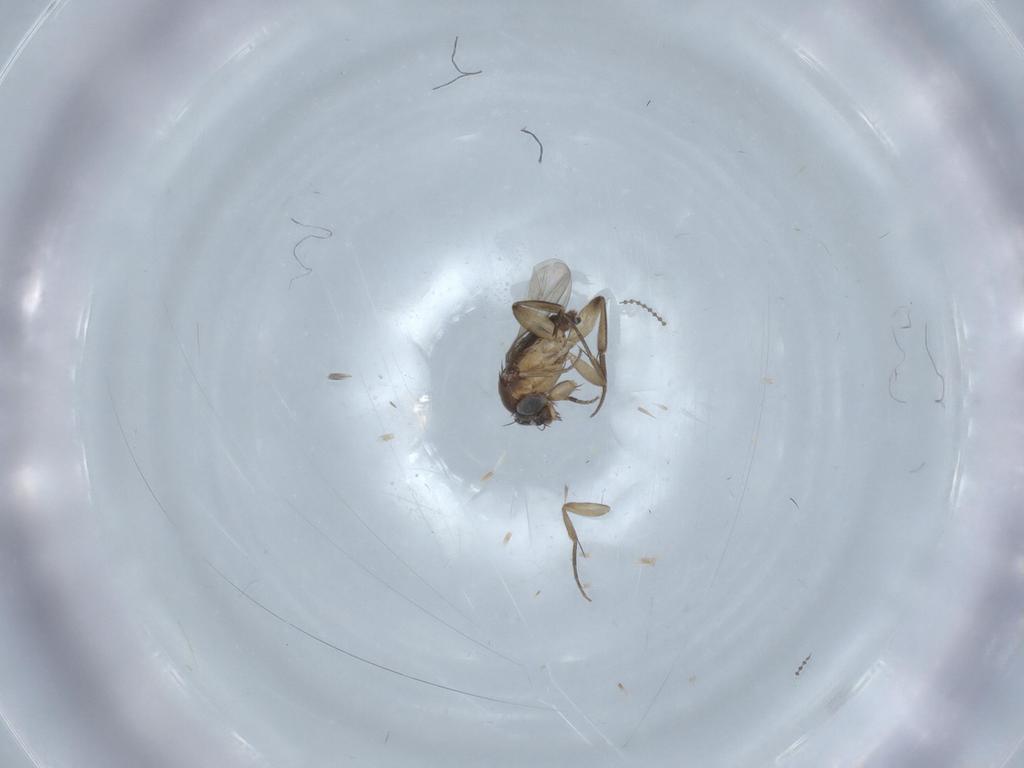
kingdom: Animalia
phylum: Arthropoda
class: Insecta
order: Diptera
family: Phoridae
